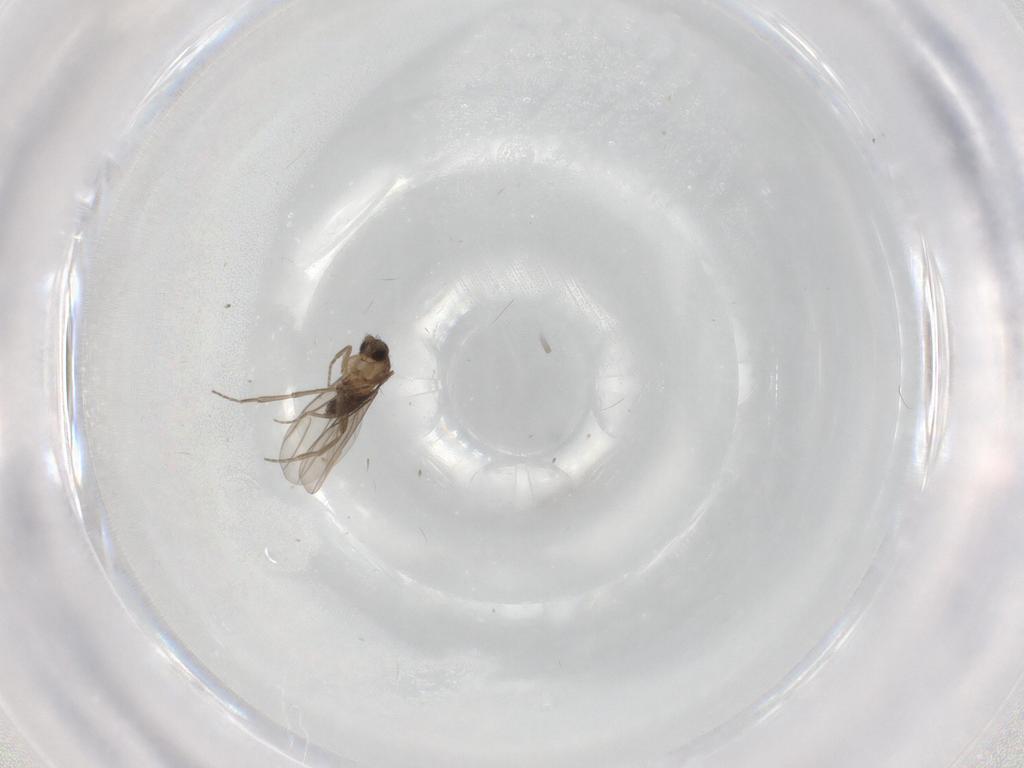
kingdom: Animalia
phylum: Arthropoda
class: Insecta
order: Diptera
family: Phoridae
